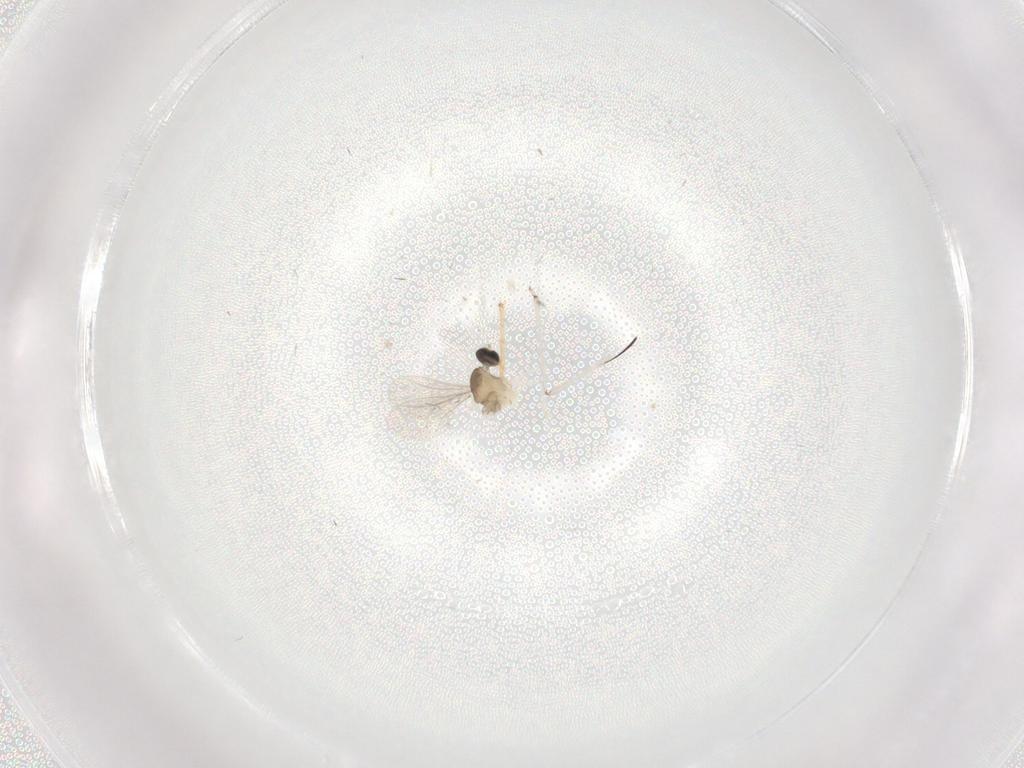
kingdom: Animalia
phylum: Arthropoda
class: Insecta
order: Diptera
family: Cecidomyiidae
